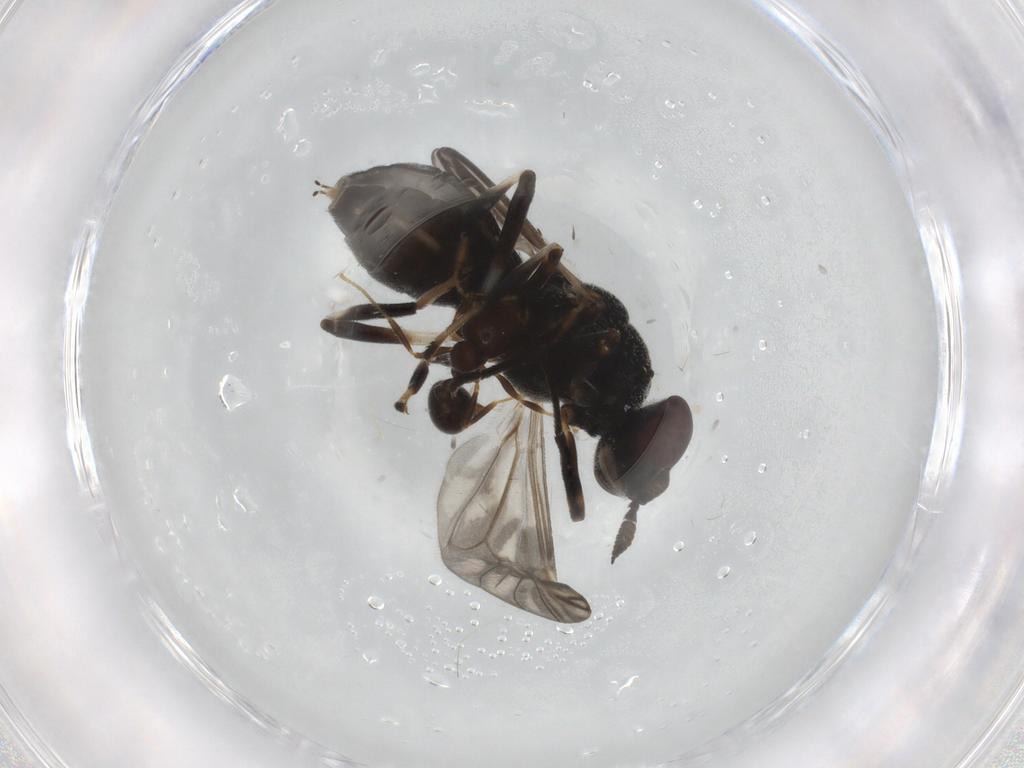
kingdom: Animalia
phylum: Arthropoda
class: Insecta
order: Diptera
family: Stratiomyidae
